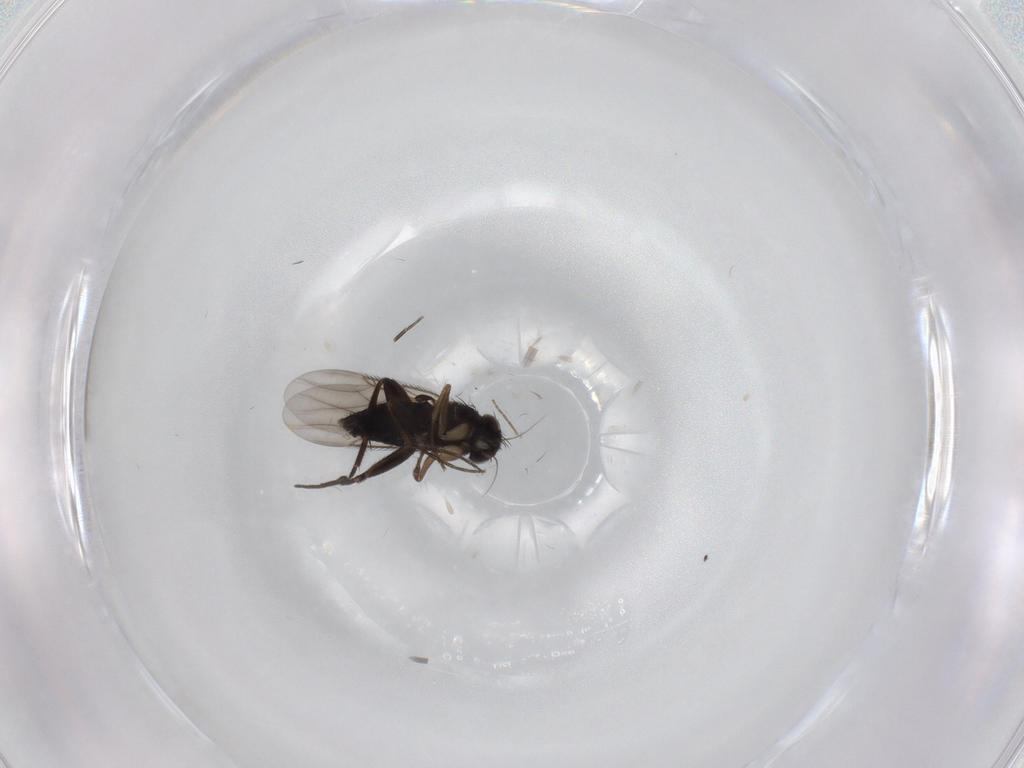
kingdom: Animalia
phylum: Arthropoda
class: Insecta
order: Diptera
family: Phoridae
